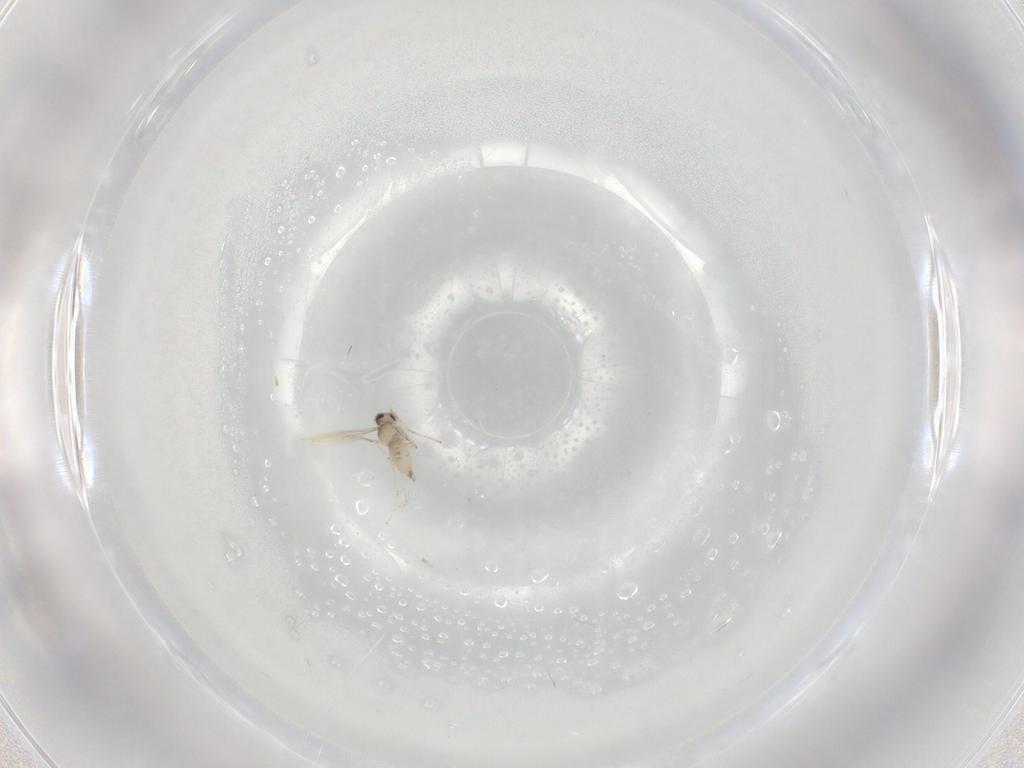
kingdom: Animalia
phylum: Arthropoda
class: Insecta
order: Diptera
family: Cecidomyiidae
